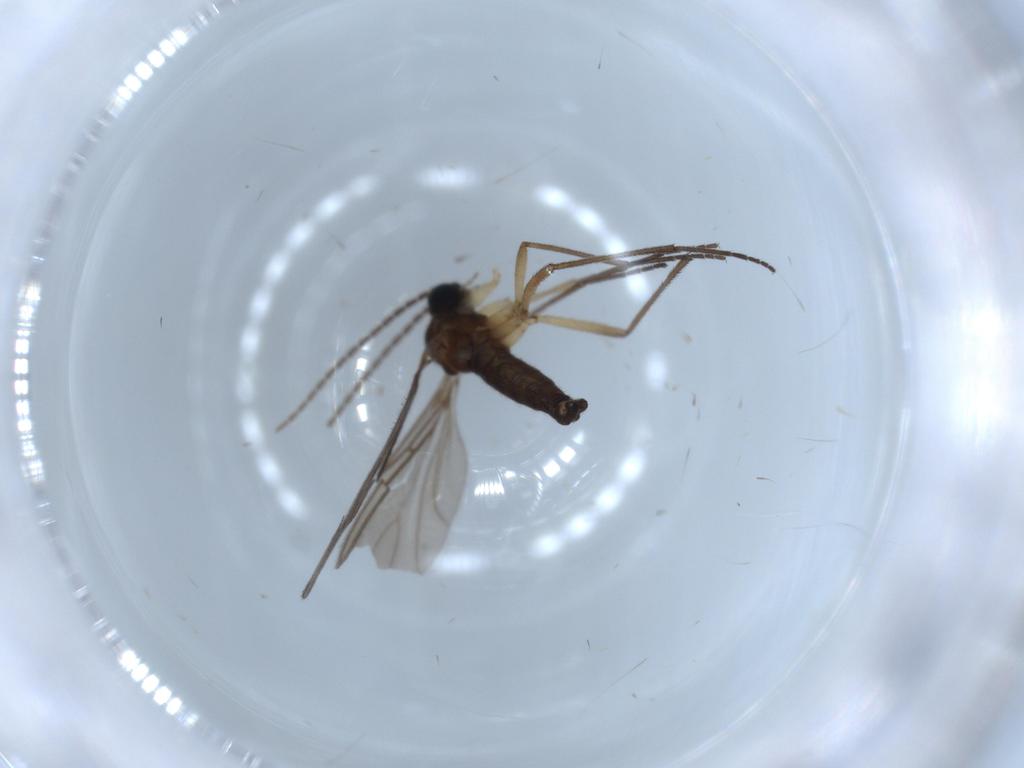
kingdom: Animalia
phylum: Arthropoda
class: Insecta
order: Diptera
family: Sciaridae
